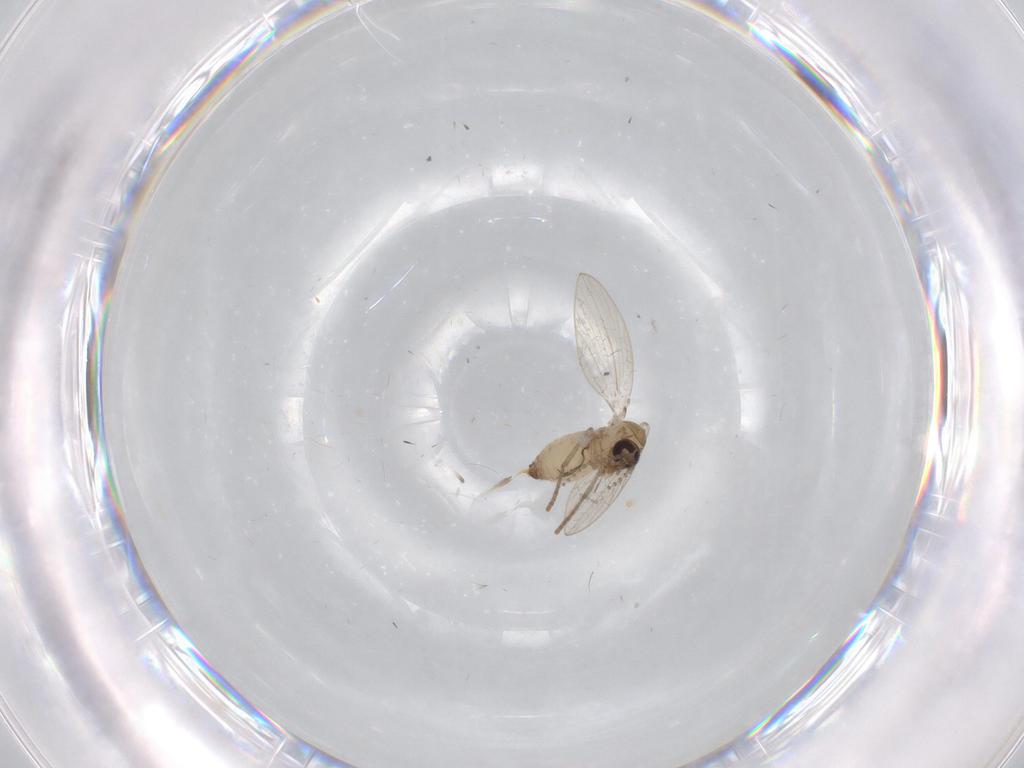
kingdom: Animalia
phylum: Arthropoda
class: Insecta
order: Diptera
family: Psychodidae
